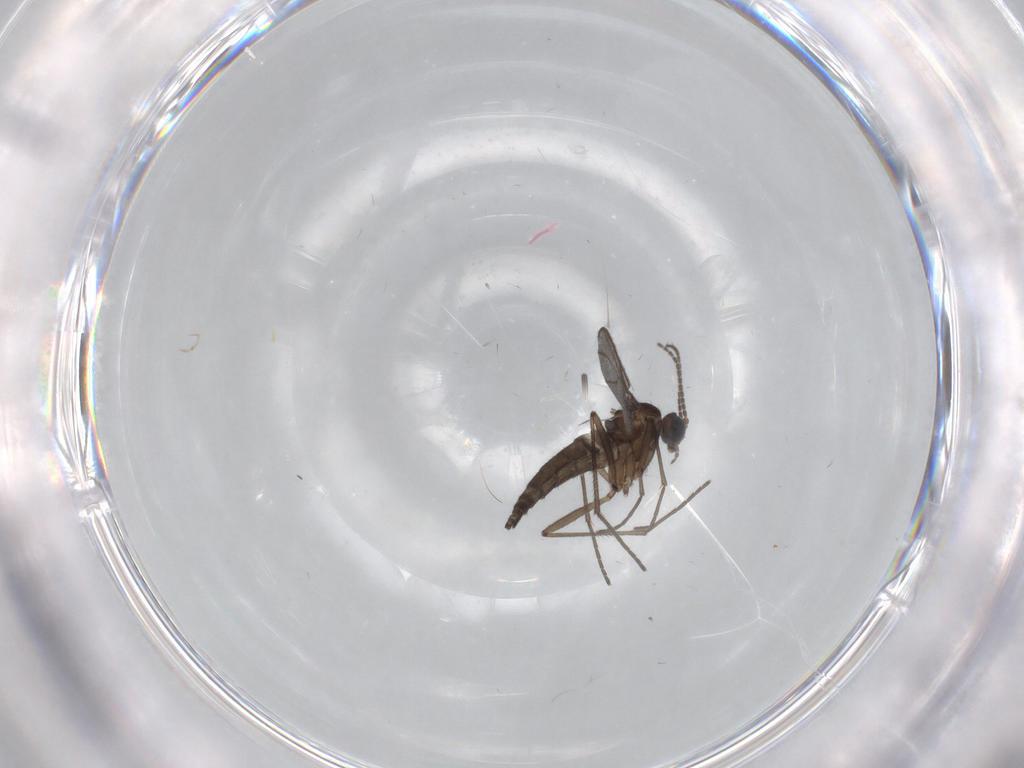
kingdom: Animalia
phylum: Arthropoda
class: Insecta
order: Diptera
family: Sciaridae
